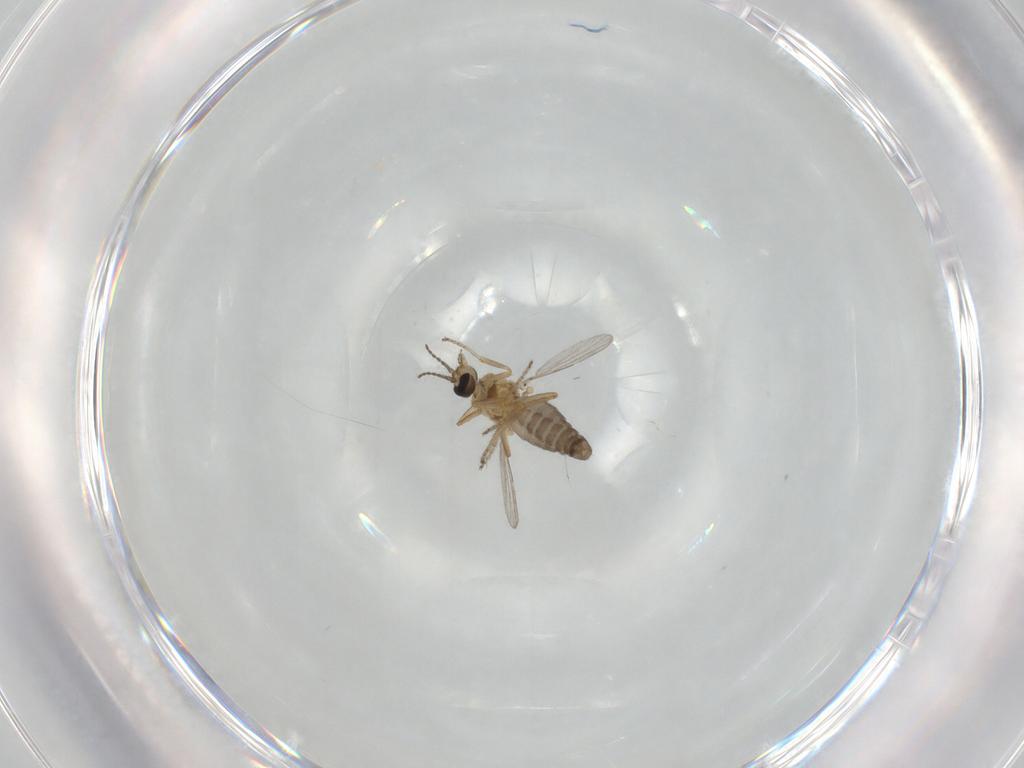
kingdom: Animalia
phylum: Arthropoda
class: Insecta
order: Diptera
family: Ceratopogonidae
